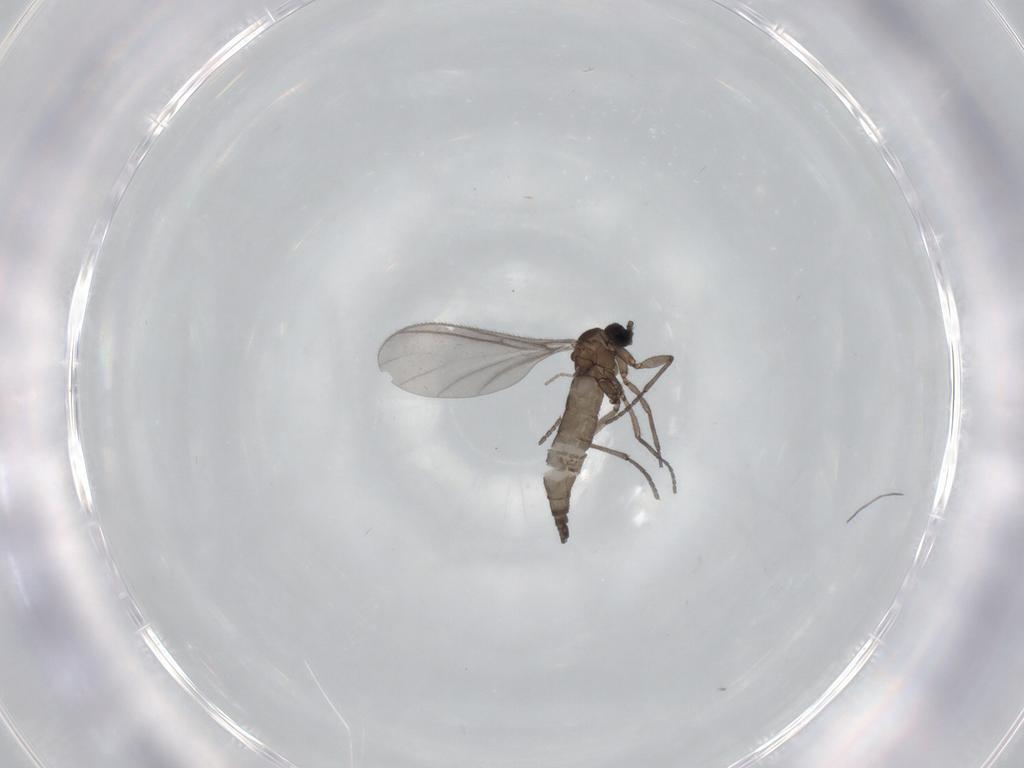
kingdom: Animalia
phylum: Arthropoda
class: Insecta
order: Diptera
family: Sciaridae
